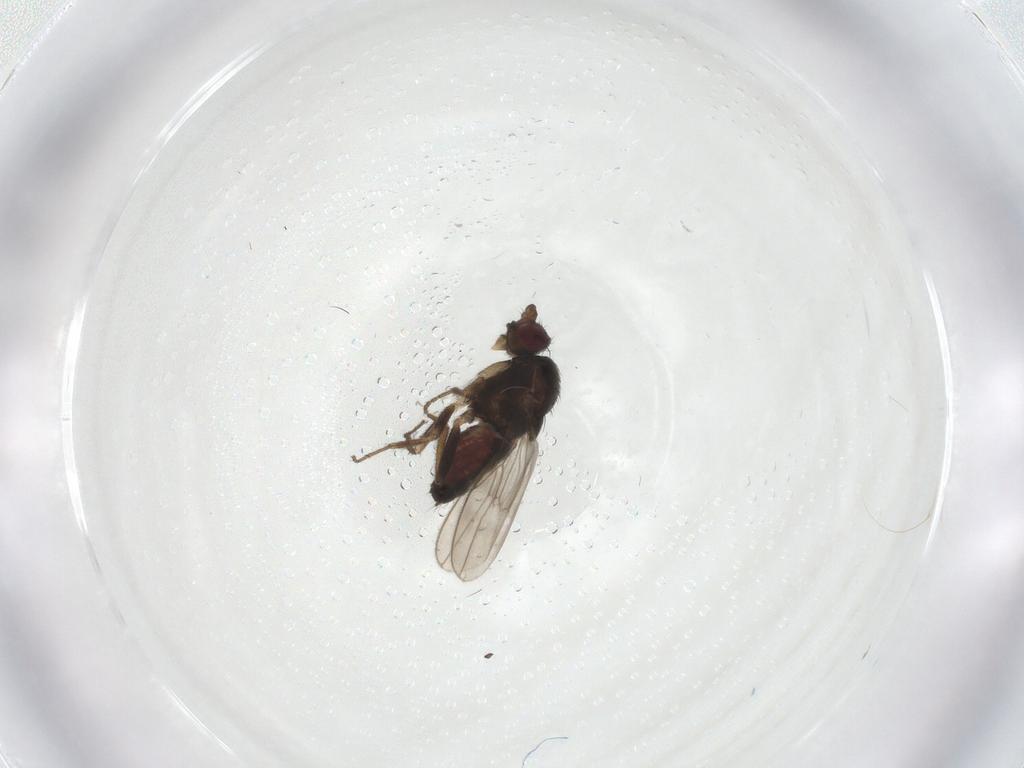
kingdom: Animalia
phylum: Arthropoda
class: Insecta
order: Diptera
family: Sphaeroceridae
